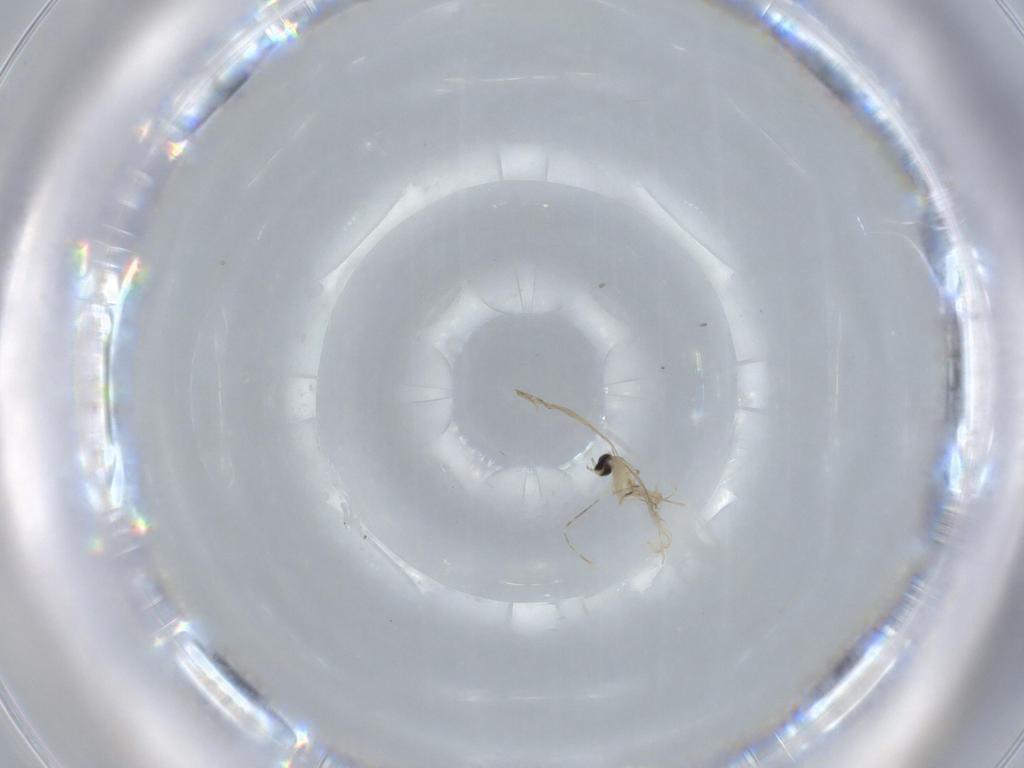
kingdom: Animalia
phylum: Arthropoda
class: Insecta
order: Diptera
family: Cecidomyiidae
